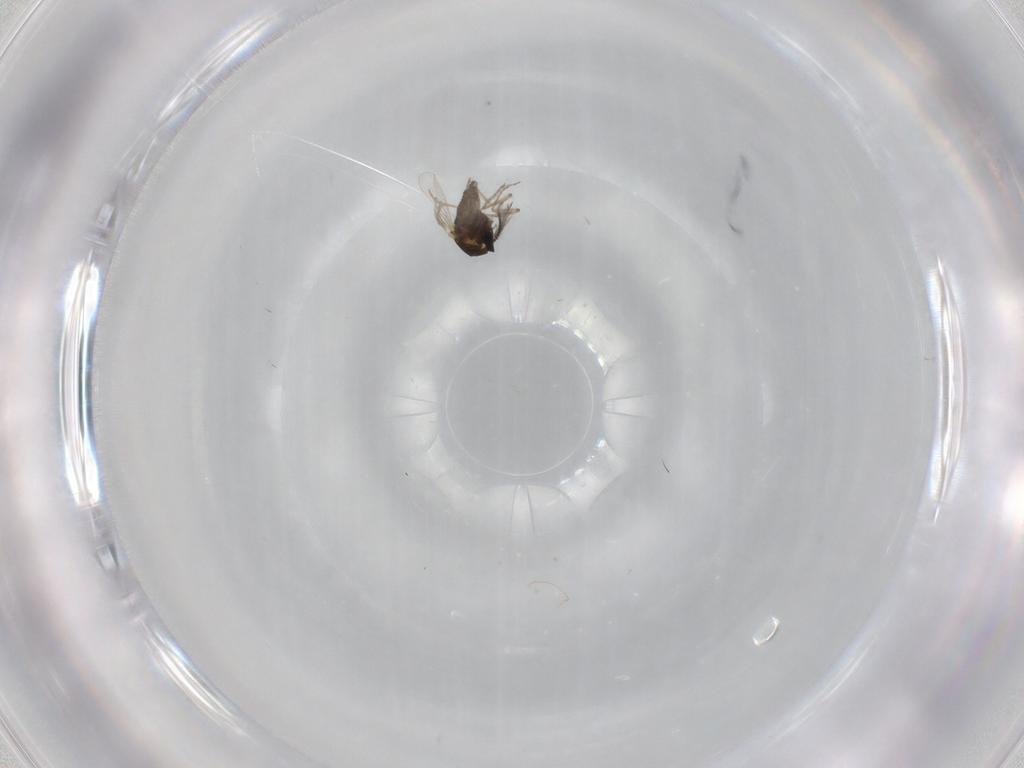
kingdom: Animalia
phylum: Arthropoda
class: Insecta
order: Diptera
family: Ceratopogonidae
